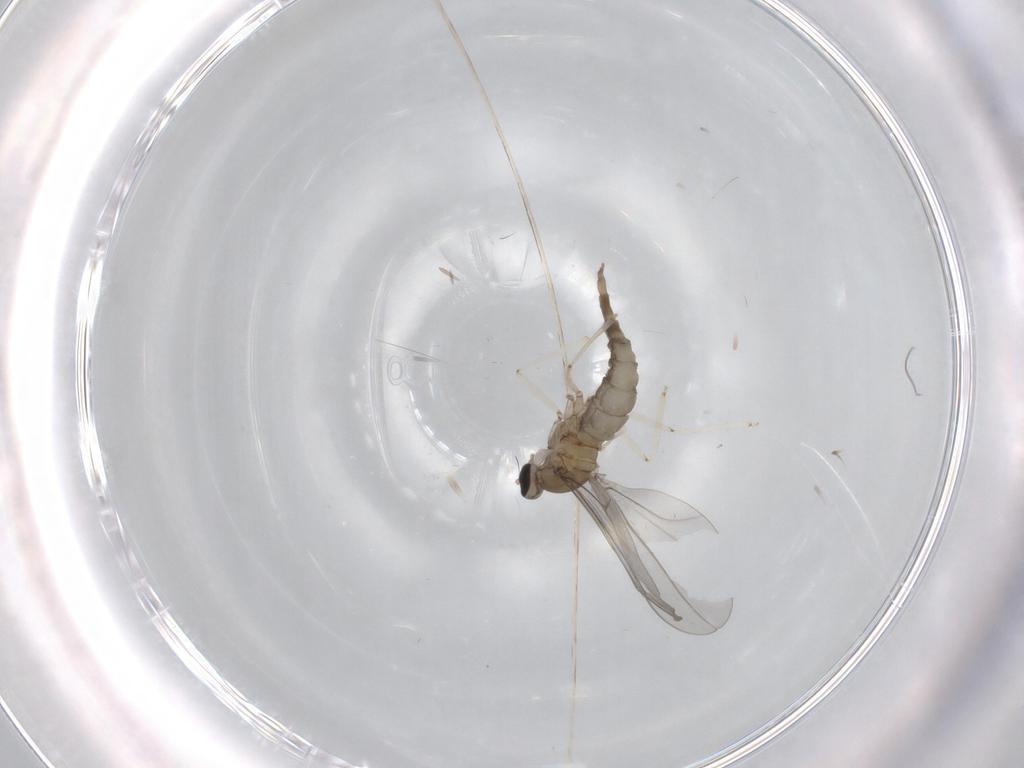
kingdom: Animalia
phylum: Arthropoda
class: Insecta
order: Diptera
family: Cecidomyiidae
